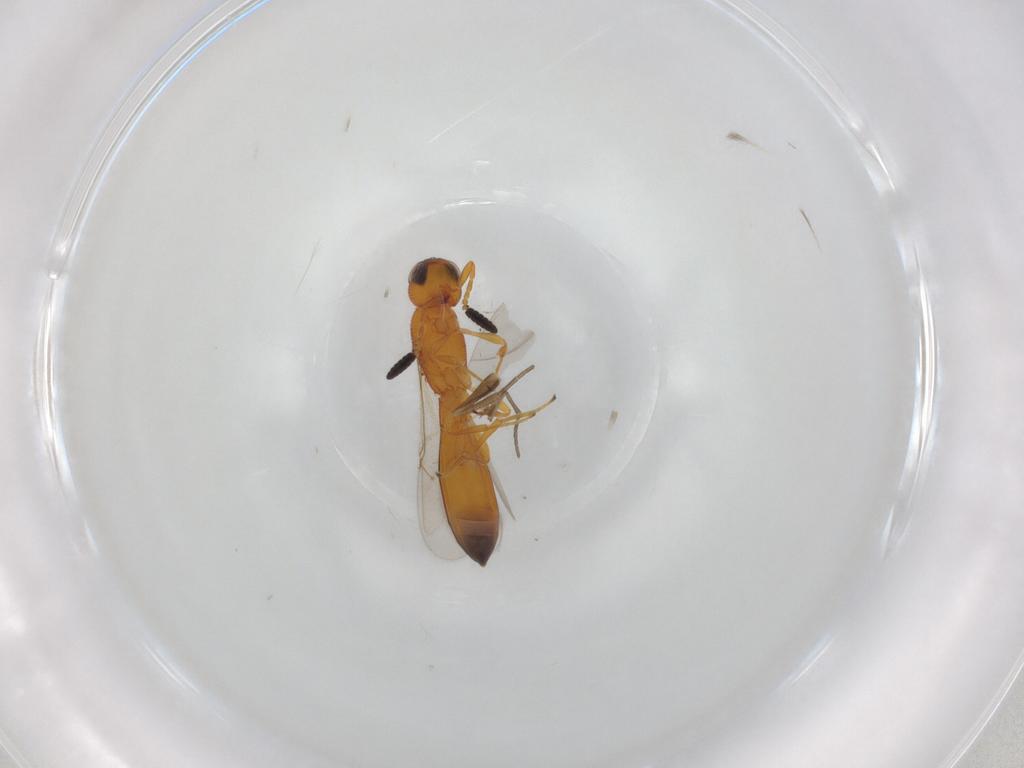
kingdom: Animalia
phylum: Arthropoda
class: Insecta
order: Hymenoptera
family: Scelionidae
